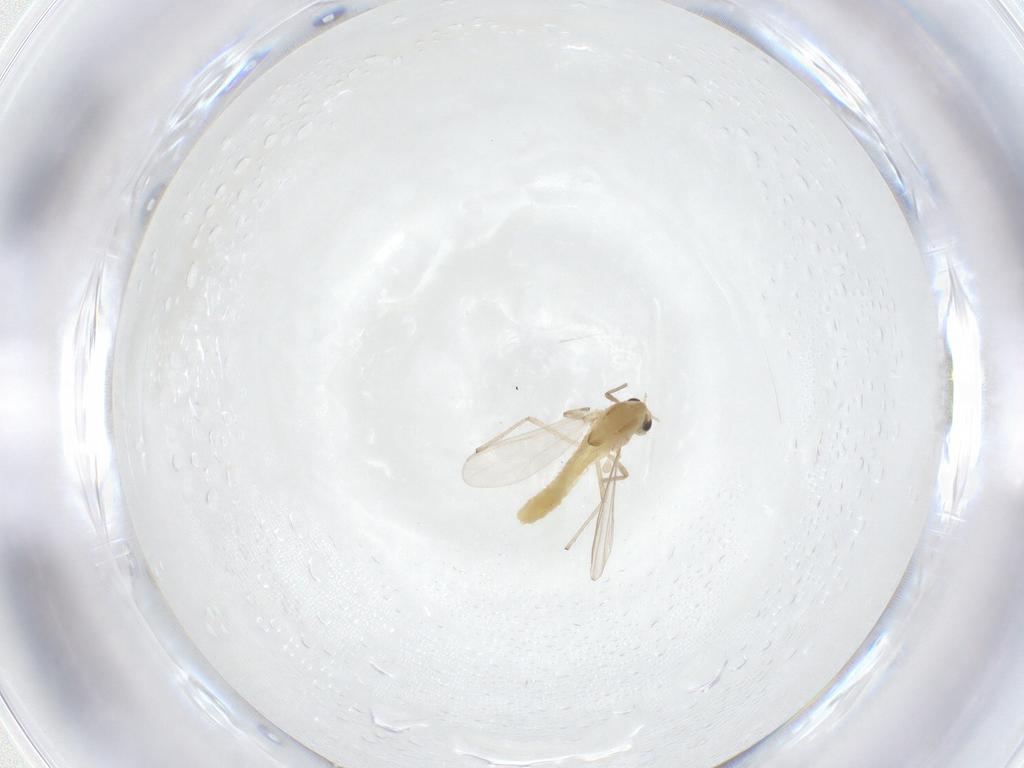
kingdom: Animalia
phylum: Arthropoda
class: Insecta
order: Diptera
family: Chironomidae
